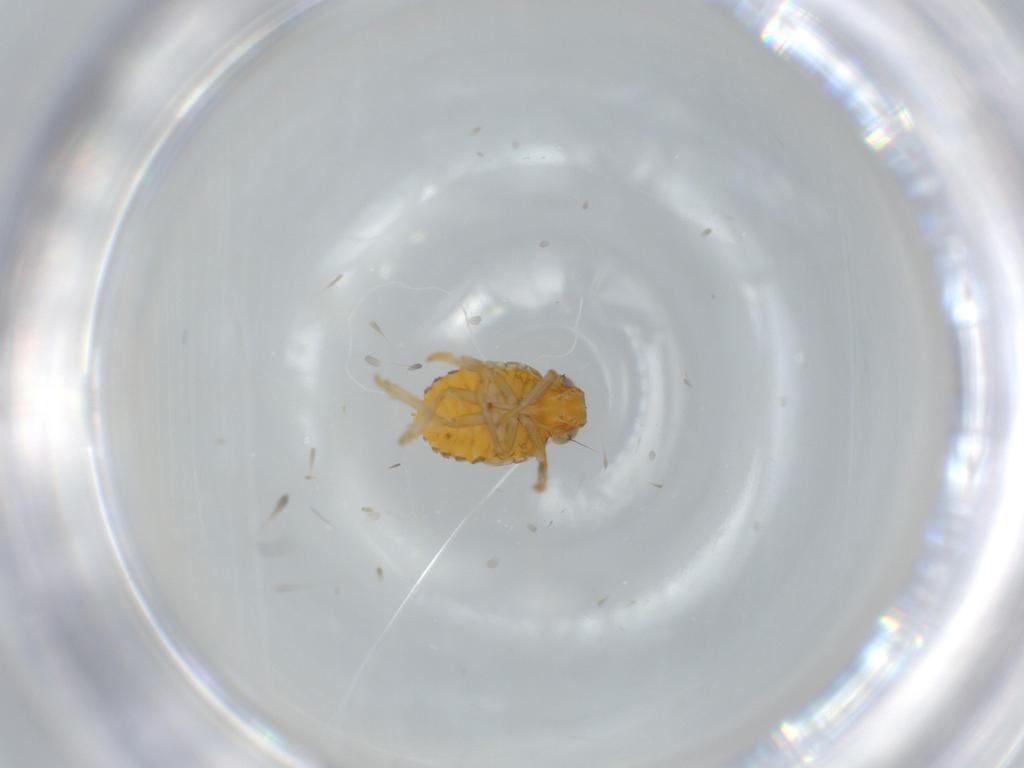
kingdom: Animalia
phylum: Arthropoda
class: Insecta
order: Hemiptera
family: Issidae
